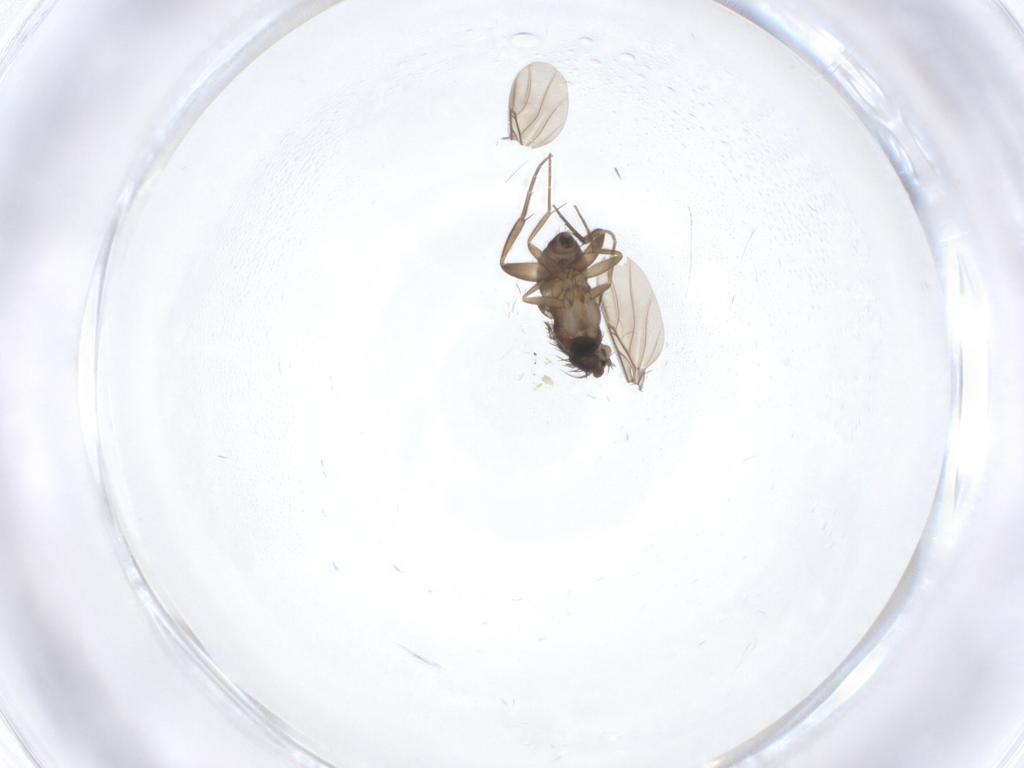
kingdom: Animalia
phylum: Arthropoda
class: Insecta
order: Diptera
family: Phoridae
